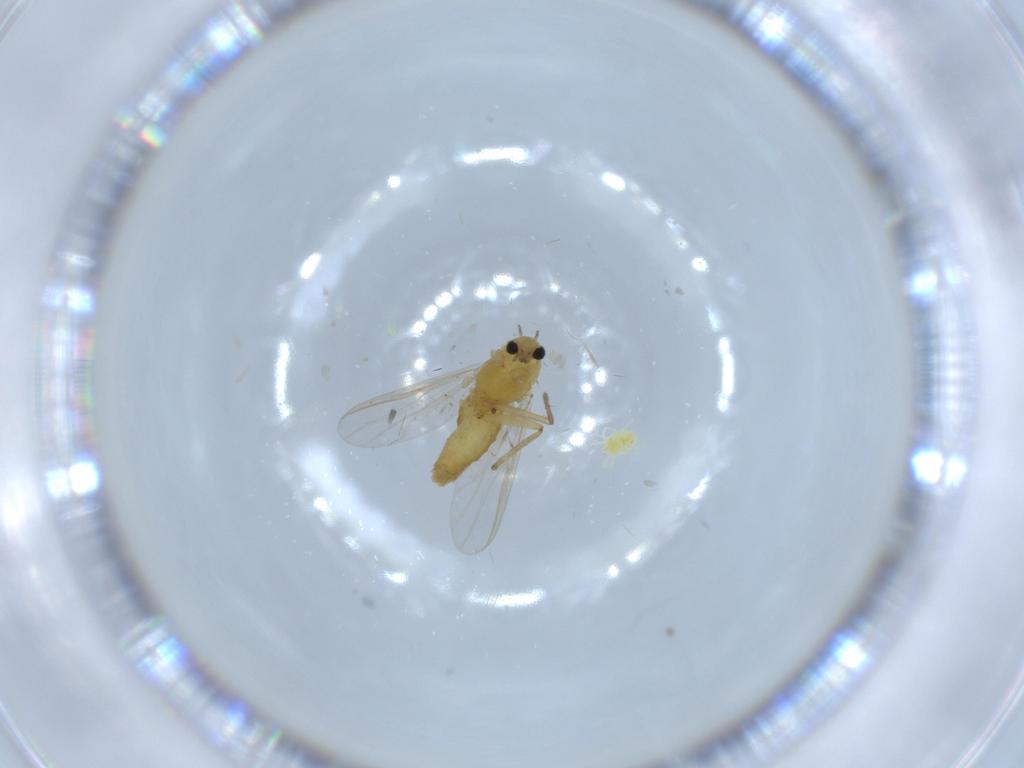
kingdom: Animalia
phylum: Arthropoda
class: Insecta
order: Diptera
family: Chironomidae
